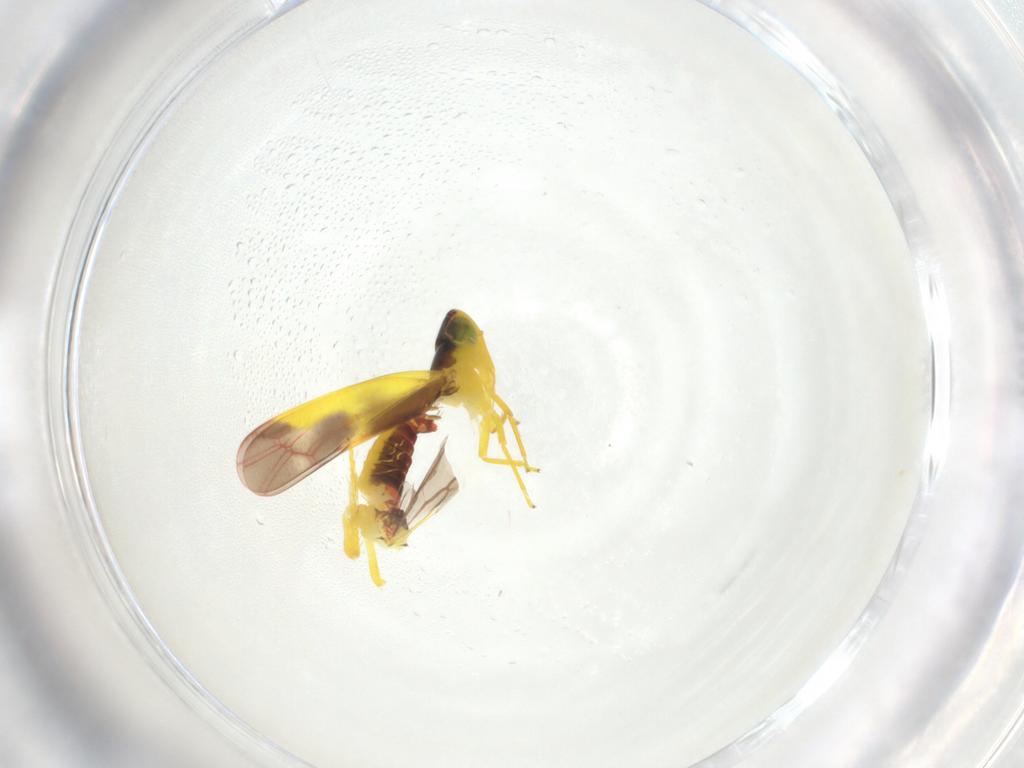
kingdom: Animalia
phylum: Arthropoda
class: Insecta
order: Hemiptera
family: Cicadellidae
